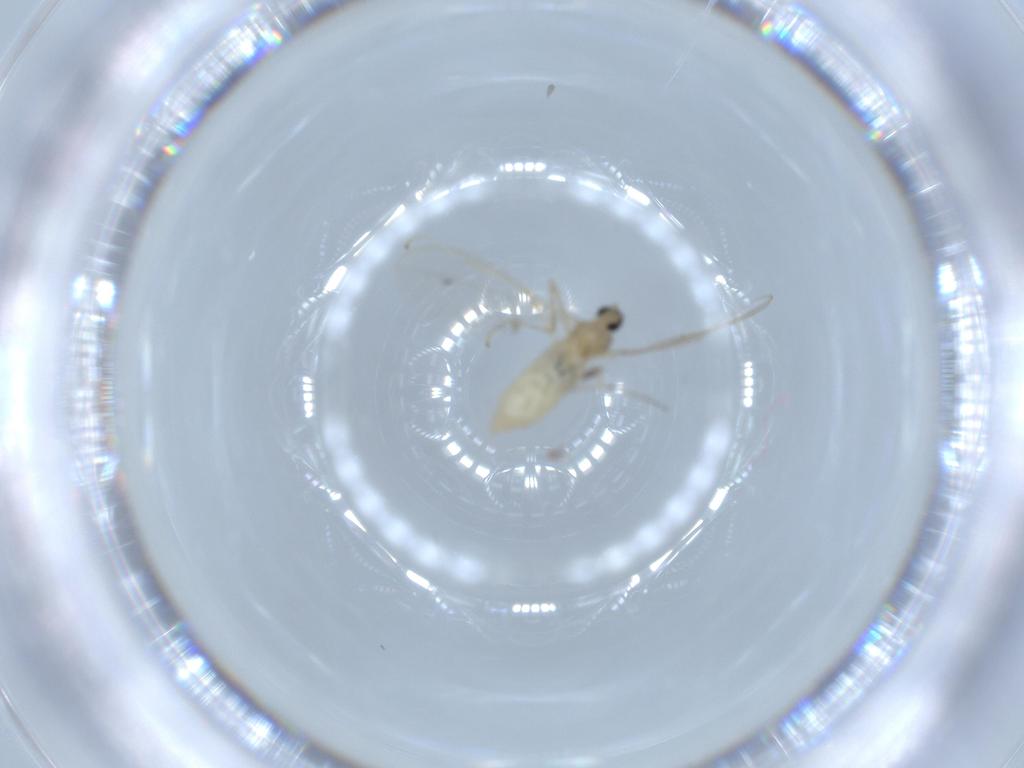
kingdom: Animalia
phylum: Arthropoda
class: Insecta
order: Diptera
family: Cecidomyiidae
